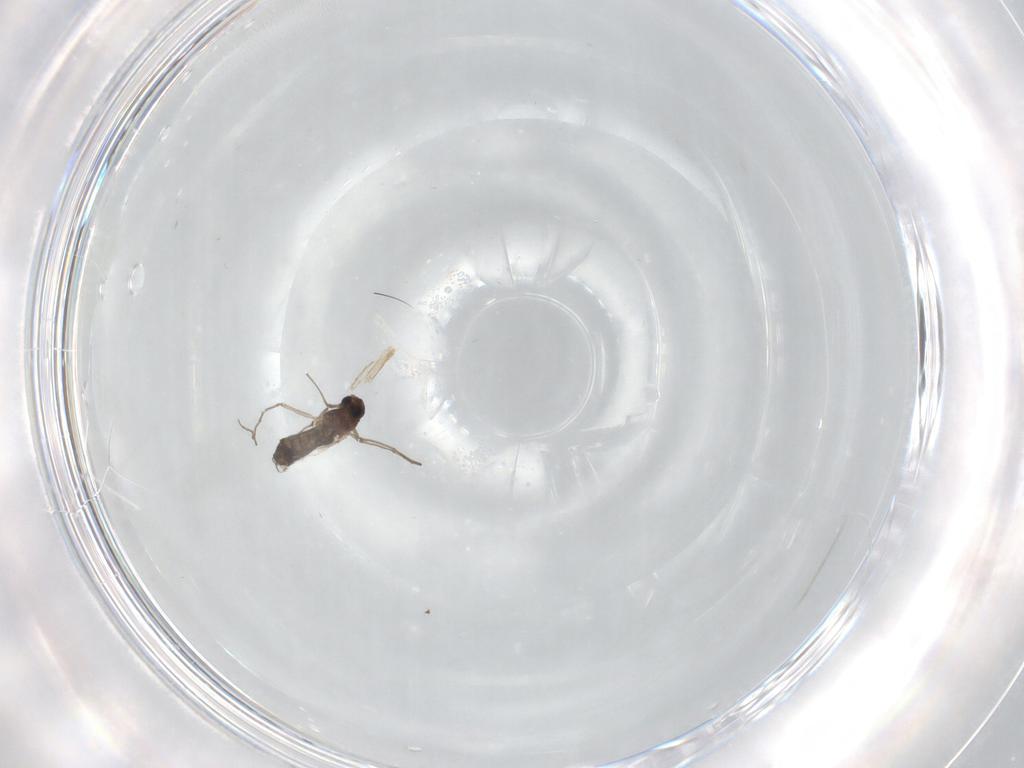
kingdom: Animalia
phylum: Arthropoda
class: Insecta
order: Diptera
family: Chironomidae
